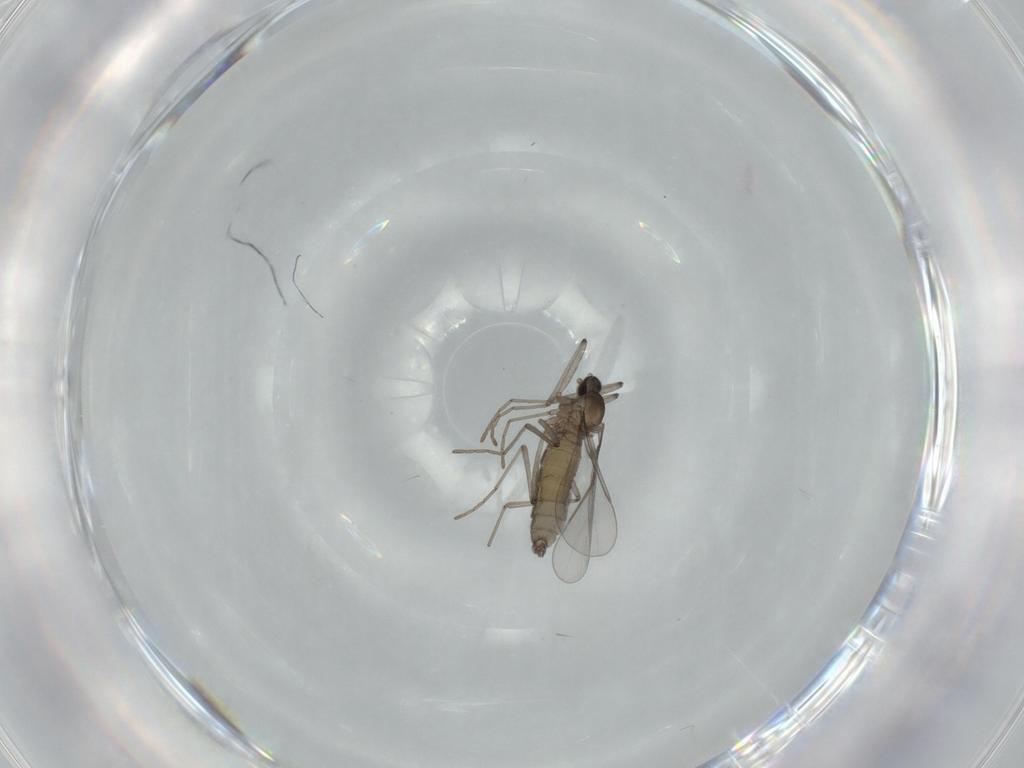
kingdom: Animalia
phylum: Arthropoda
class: Insecta
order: Diptera
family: Cecidomyiidae
